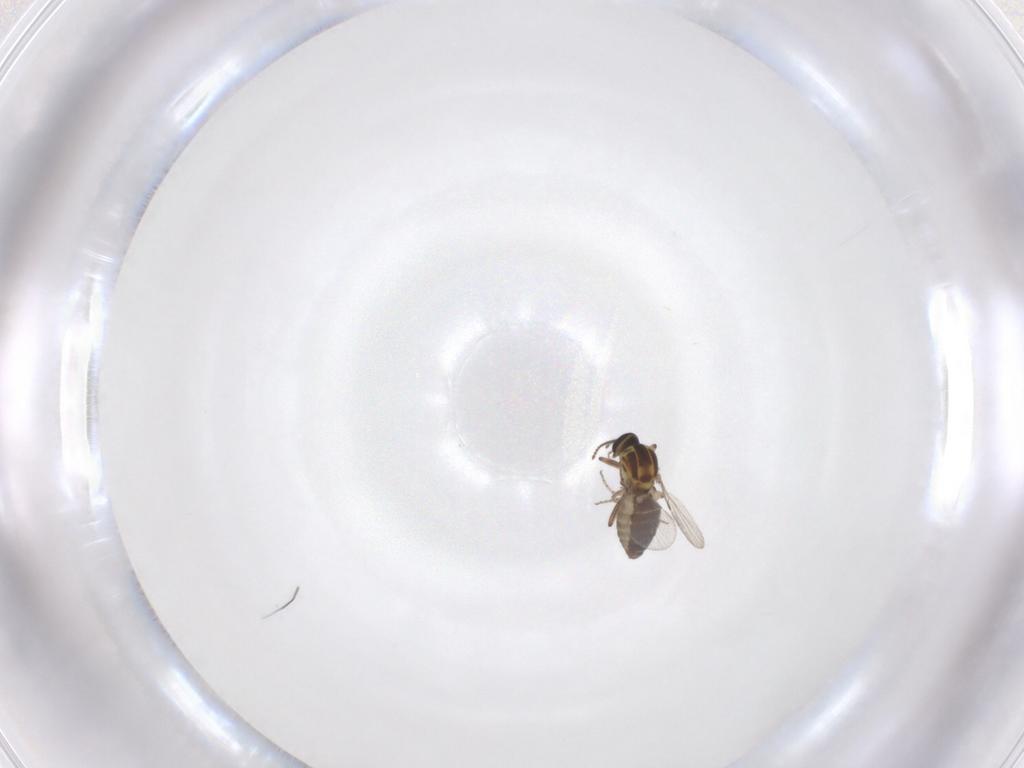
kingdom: Animalia
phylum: Arthropoda
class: Insecta
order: Diptera
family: Ceratopogonidae
